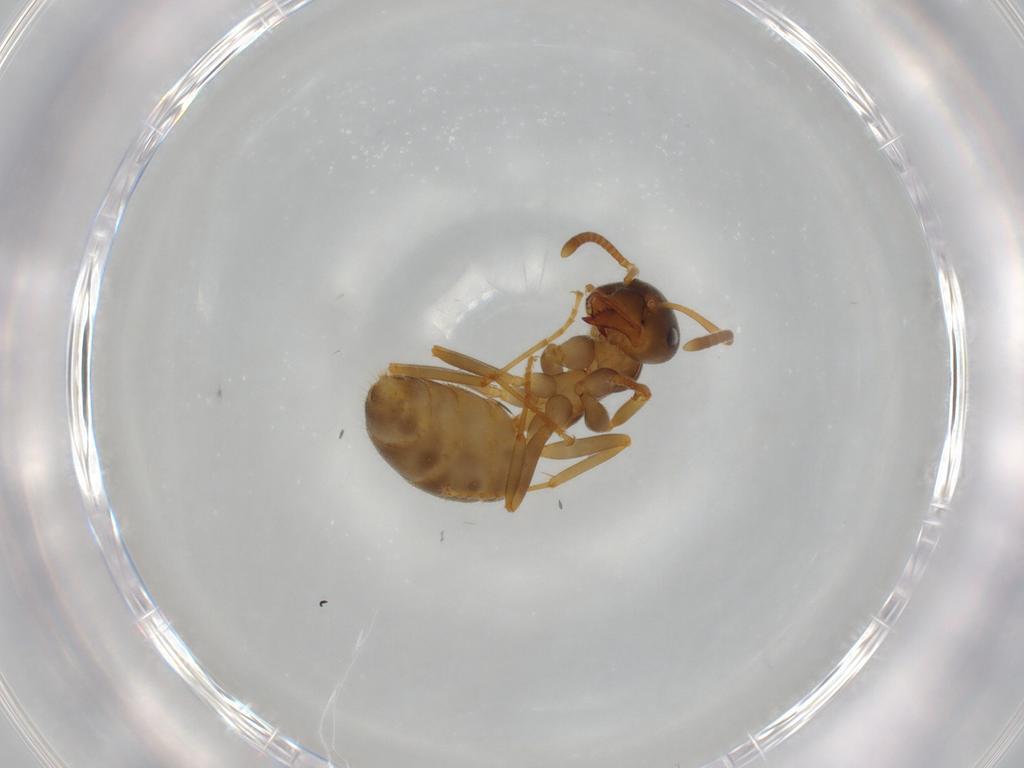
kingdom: Animalia
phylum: Arthropoda
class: Insecta
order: Hymenoptera
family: Formicidae
